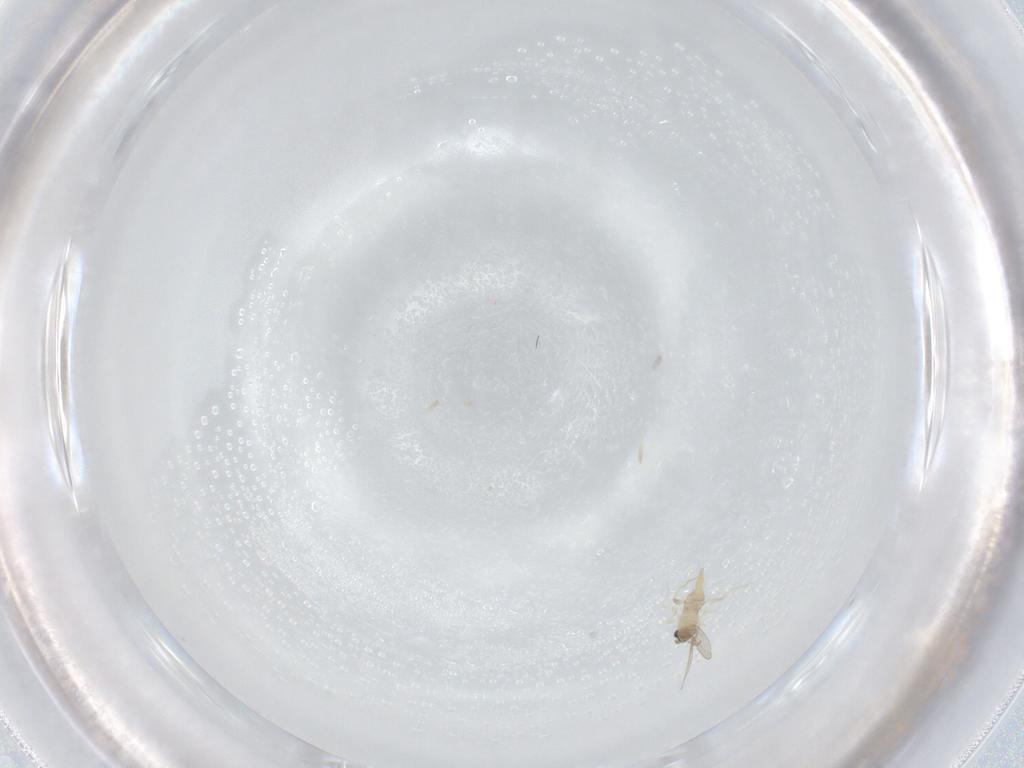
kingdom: Animalia
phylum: Arthropoda
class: Insecta
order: Diptera
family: Cecidomyiidae
